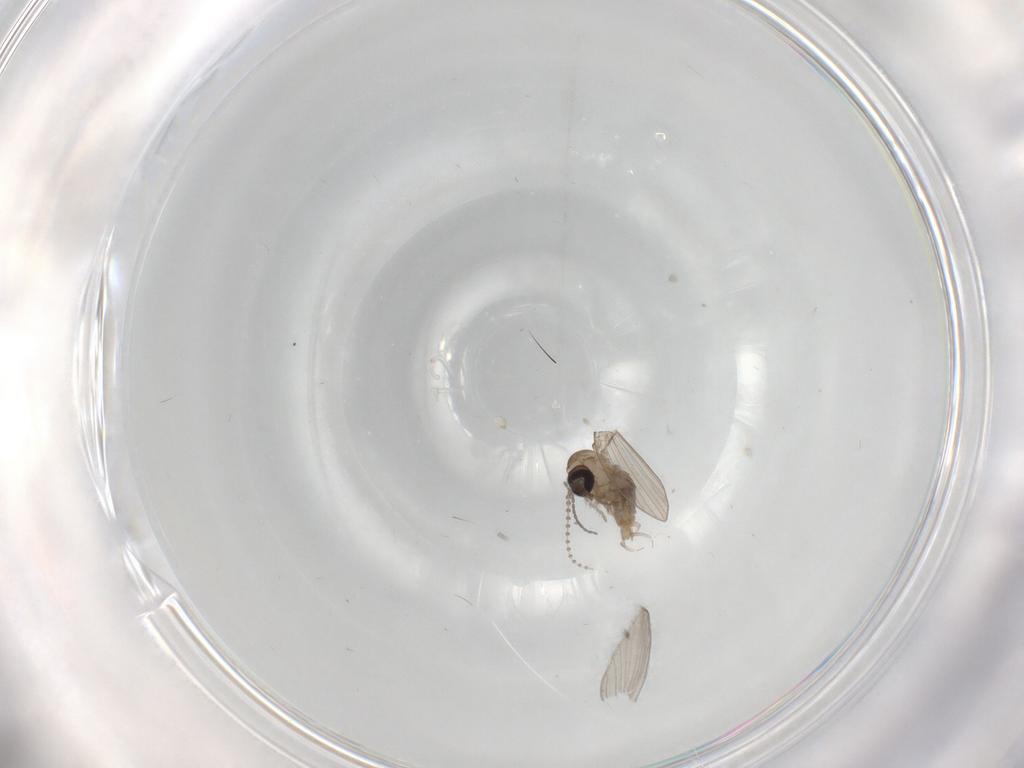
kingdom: Animalia
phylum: Arthropoda
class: Insecta
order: Diptera
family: Psychodidae
